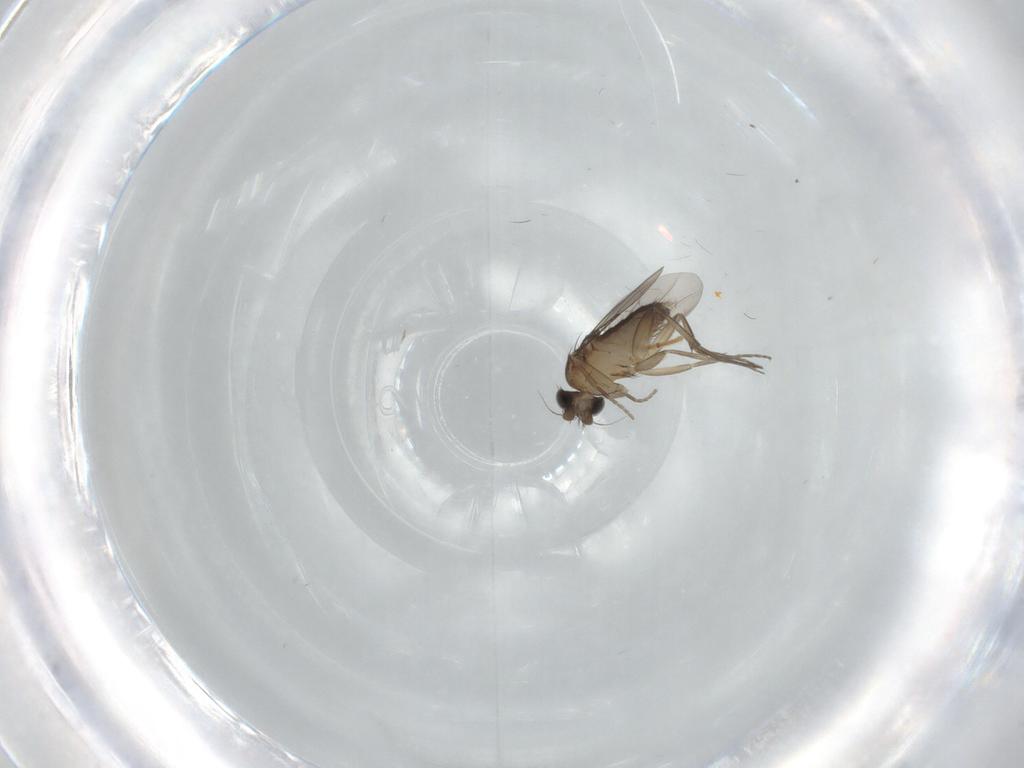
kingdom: Animalia
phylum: Arthropoda
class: Insecta
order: Diptera
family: Phoridae
